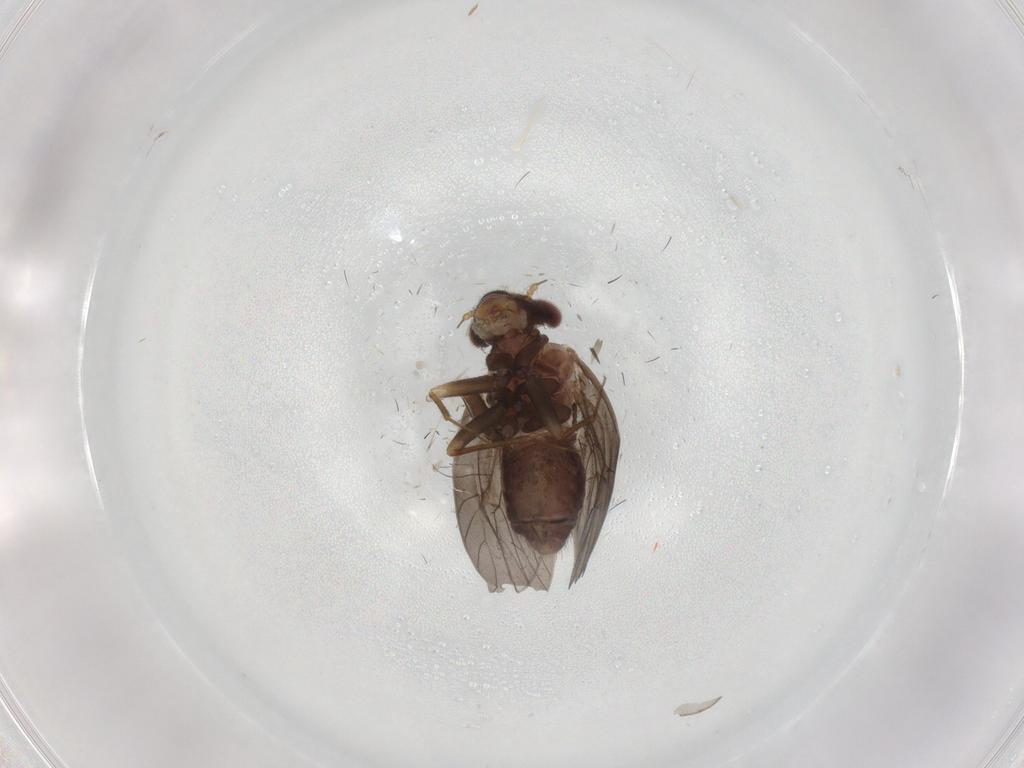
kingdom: Animalia
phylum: Arthropoda
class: Insecta
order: Psocodea
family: Lepidopsocidae
